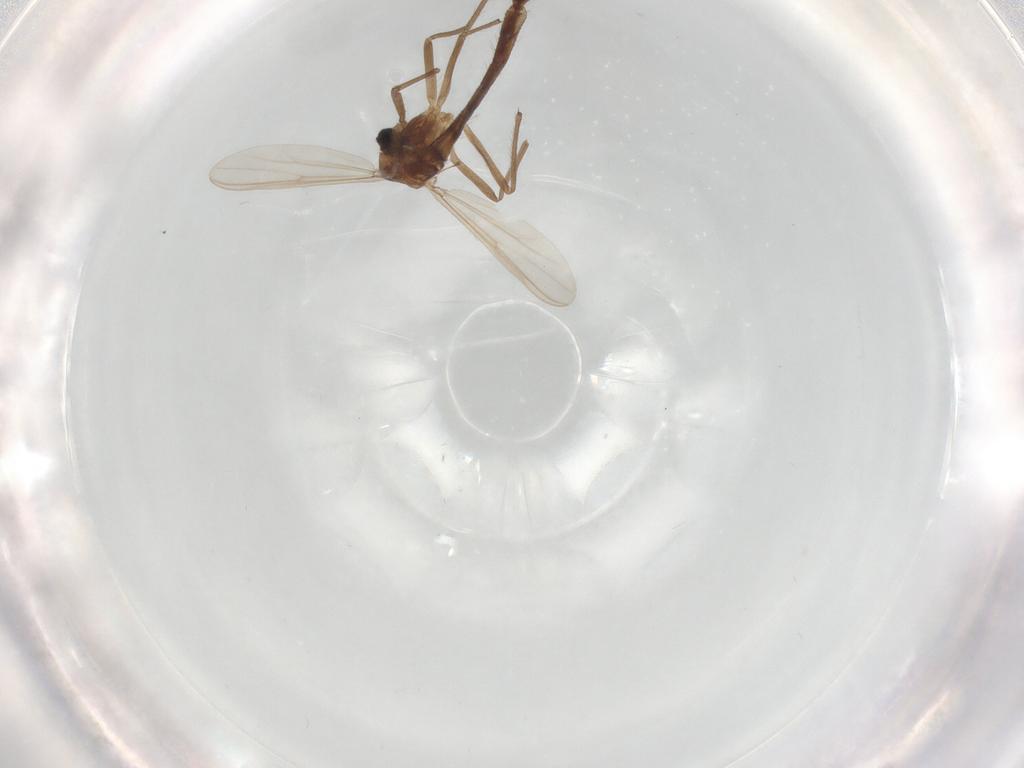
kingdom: Animalia
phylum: Arthropoda
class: Insecta
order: Diptera
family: Chironomidae
